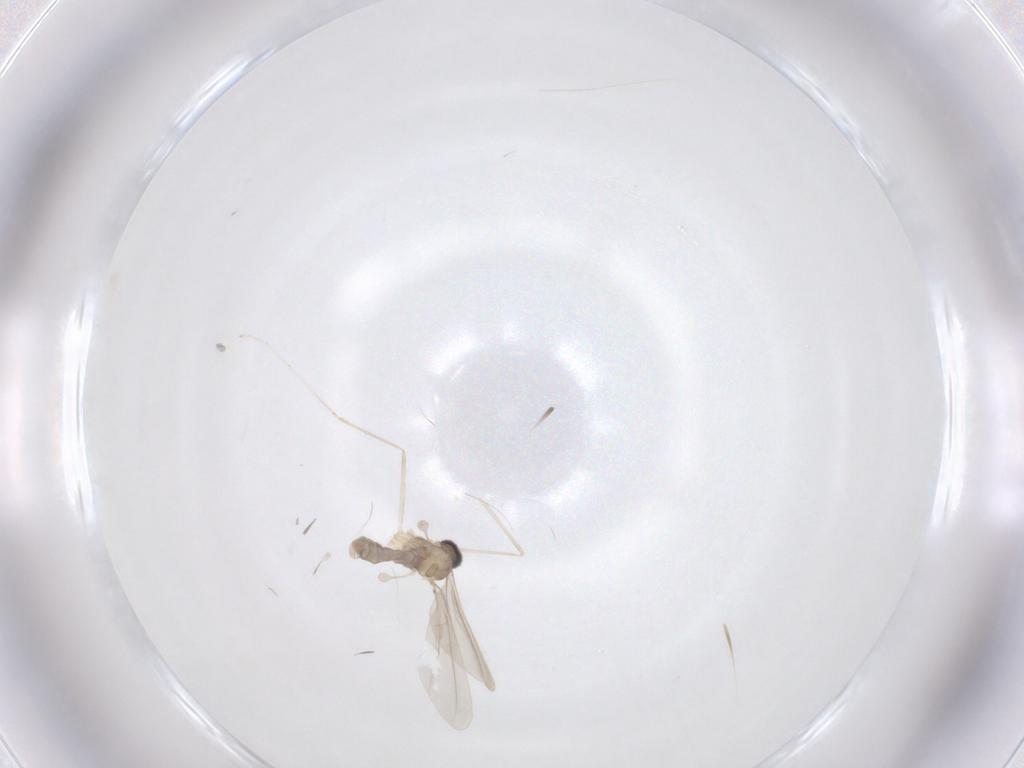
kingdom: Animalia
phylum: Arthropoda
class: Insecta
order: Diptera
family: Cecidomyiidae
